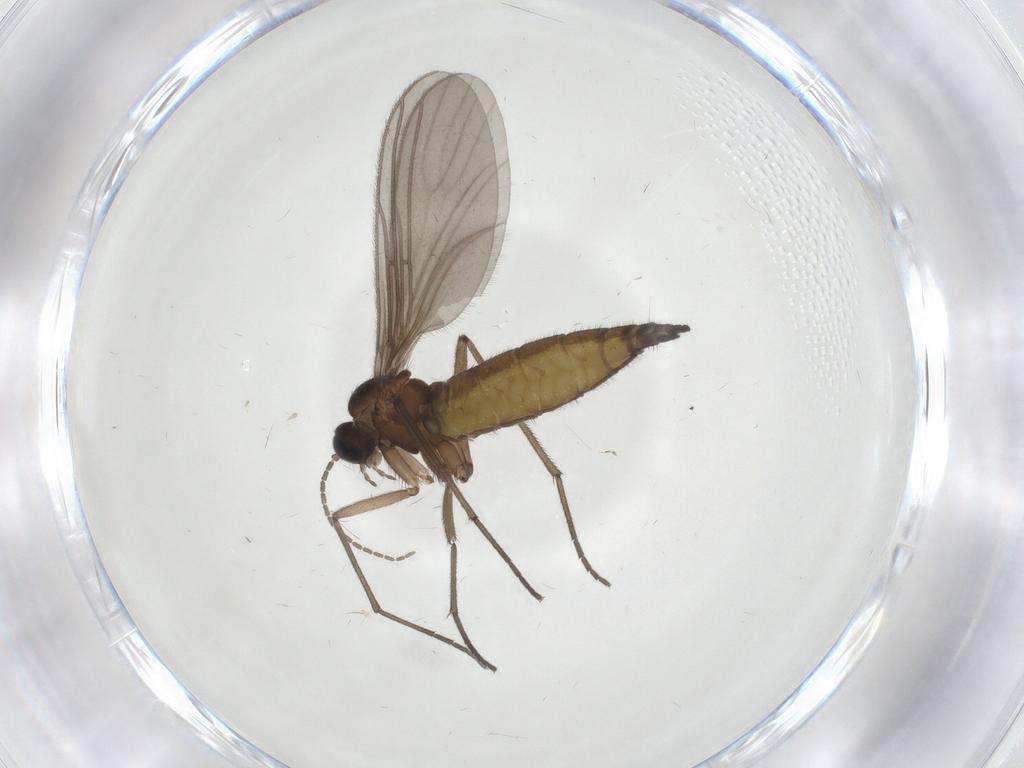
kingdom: Animalia
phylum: Arthropoda
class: Insecta
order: Diptera
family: Sciaridae
